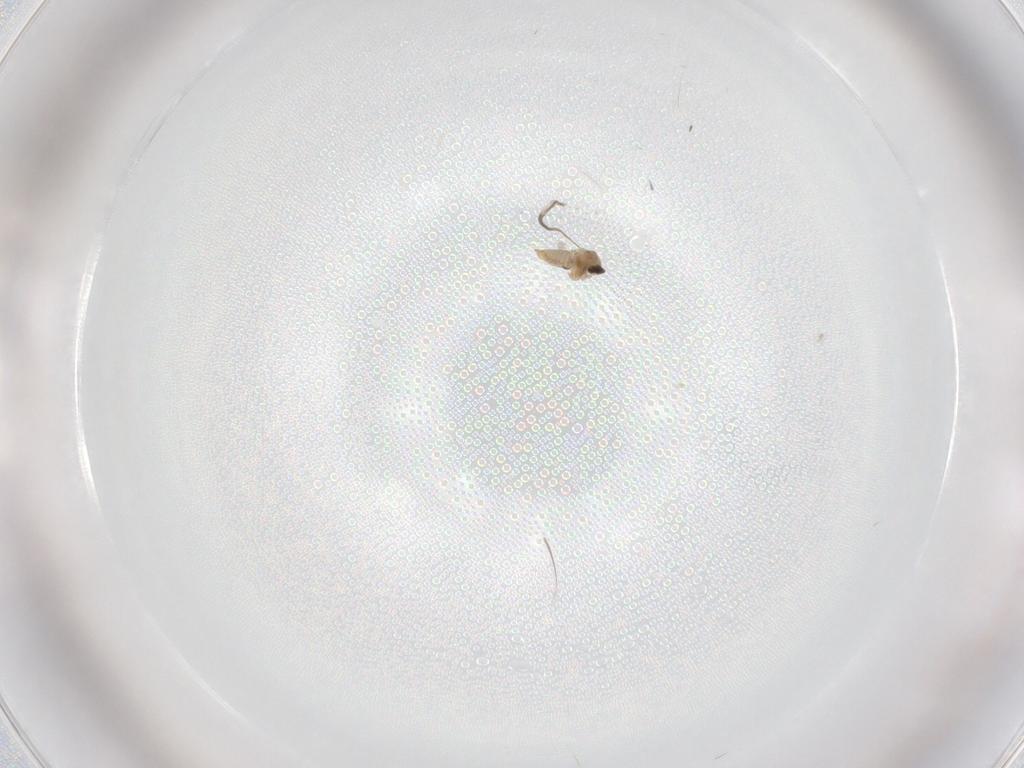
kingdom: Animalia
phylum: Arthropoda
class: Insecta
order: Diptera
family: Cecidomyiidae
